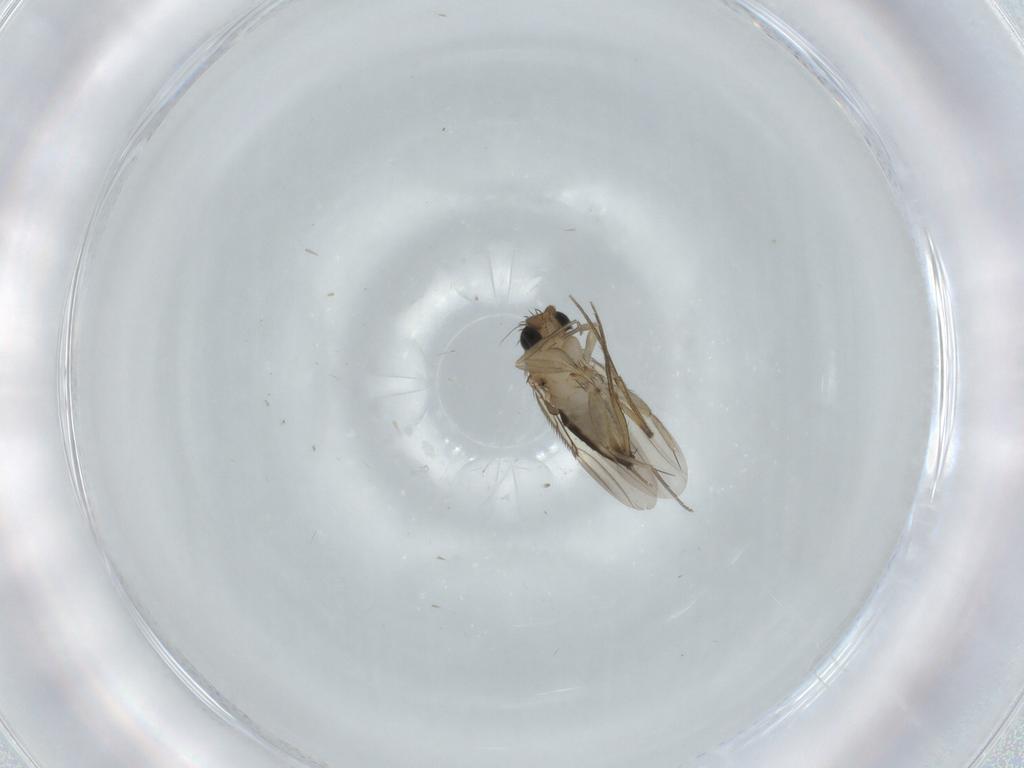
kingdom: Animalia
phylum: Arthropoda
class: Insecta
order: Diptera
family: Phoridae
